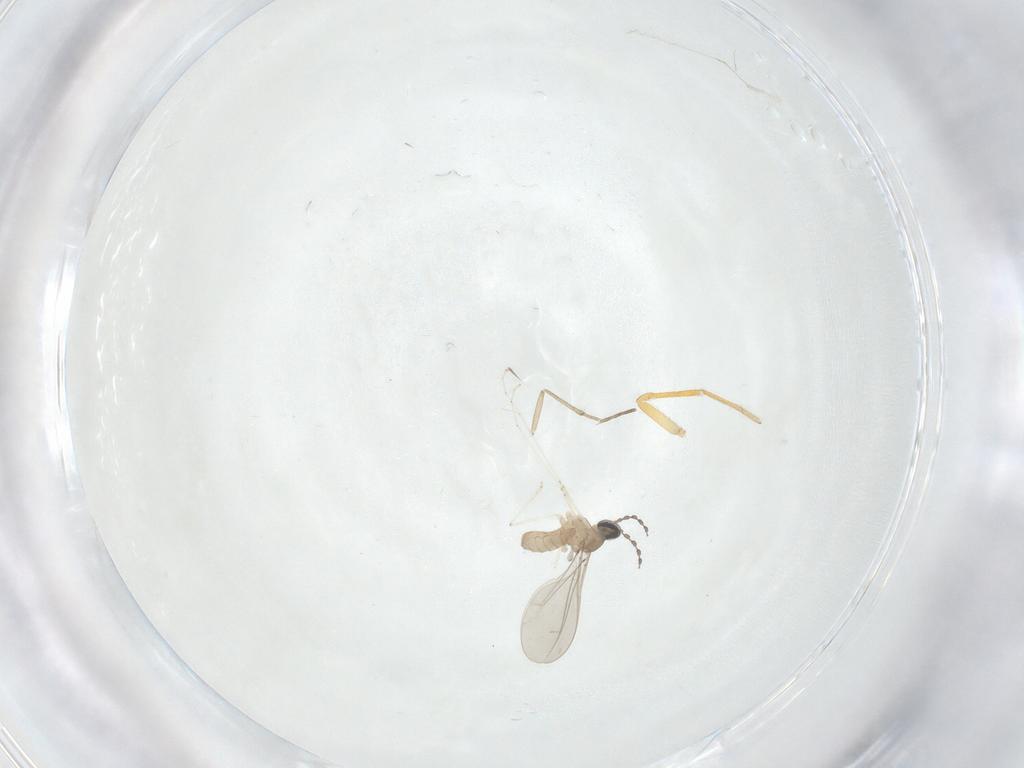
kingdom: Animalia
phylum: Arthropoda
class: Insecta
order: Diptera
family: Cecidomyiidae
